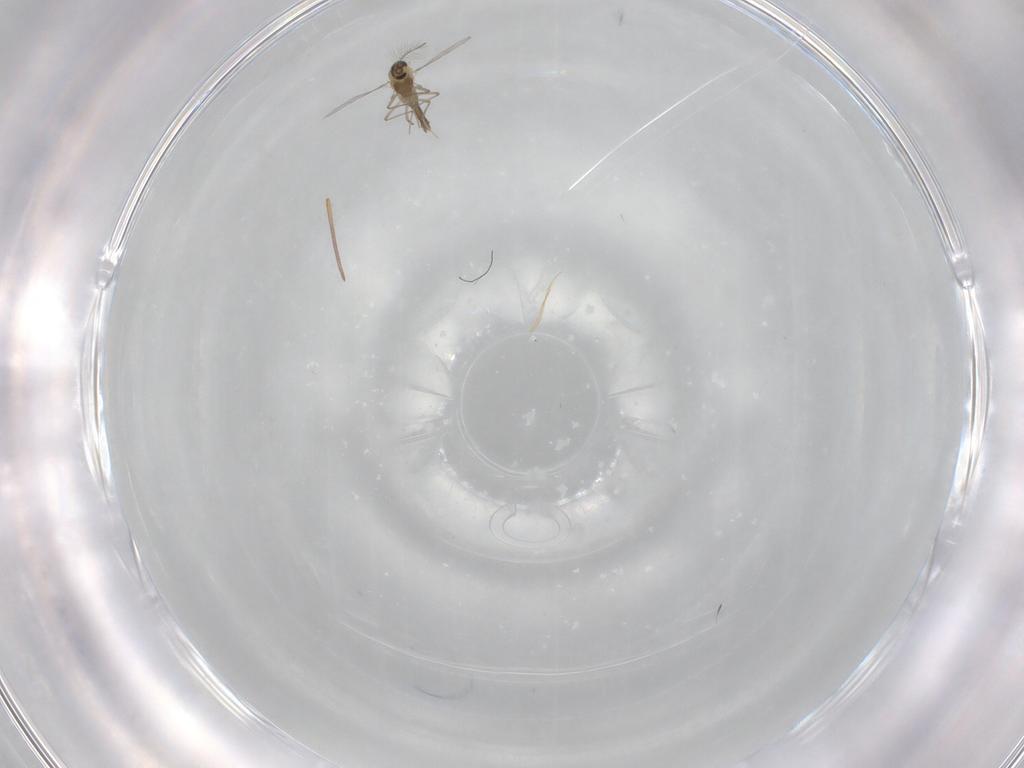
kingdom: Animalia
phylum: Arthropoda
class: Insecta
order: Diptera
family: Chironomidae
